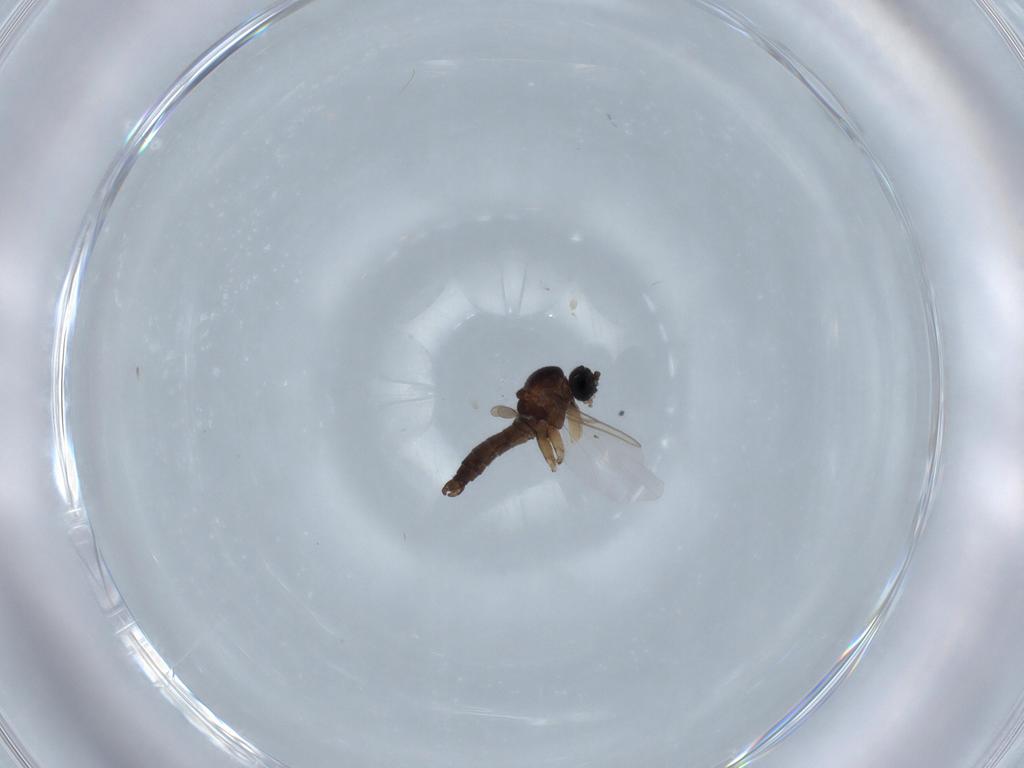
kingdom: Animalia
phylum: Arthropoda
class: Insecta
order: Diptera
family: Sciaridae
